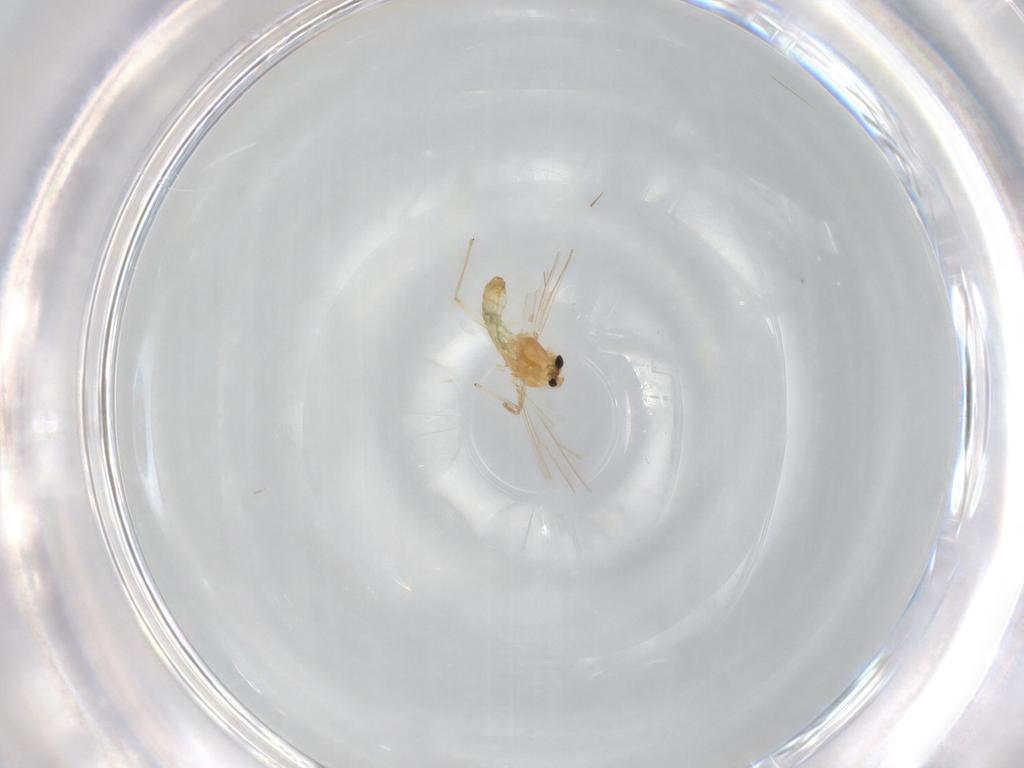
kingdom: Animalia
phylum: Arthropoda
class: Insecta
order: Diptera
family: Chironomidae
